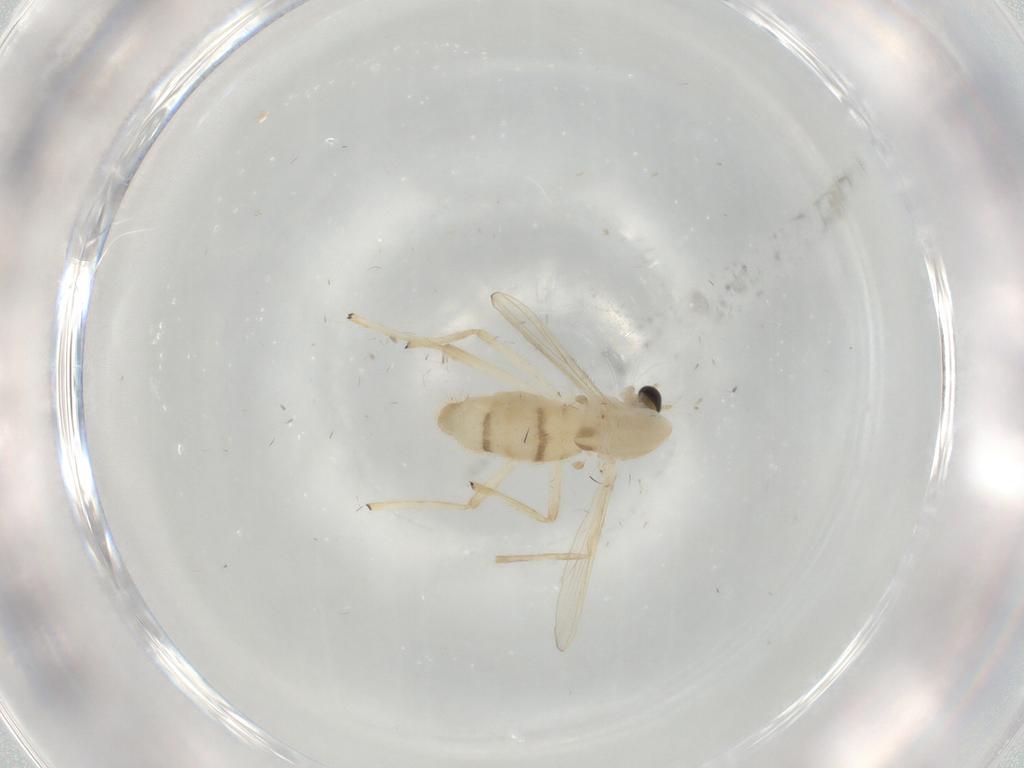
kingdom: Animalia
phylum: Arthropoda
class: Insecta
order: Diptera
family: Chironomidae
